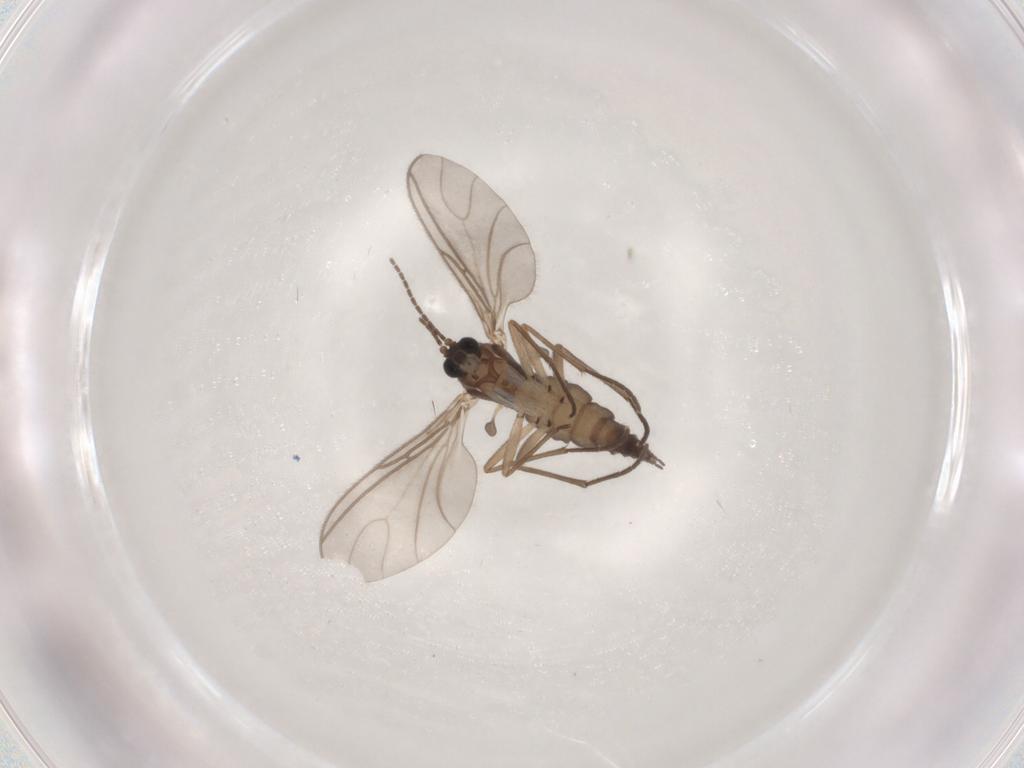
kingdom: Animalia
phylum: Arthropoda
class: Insecta
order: Diptera
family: Sciaridae
